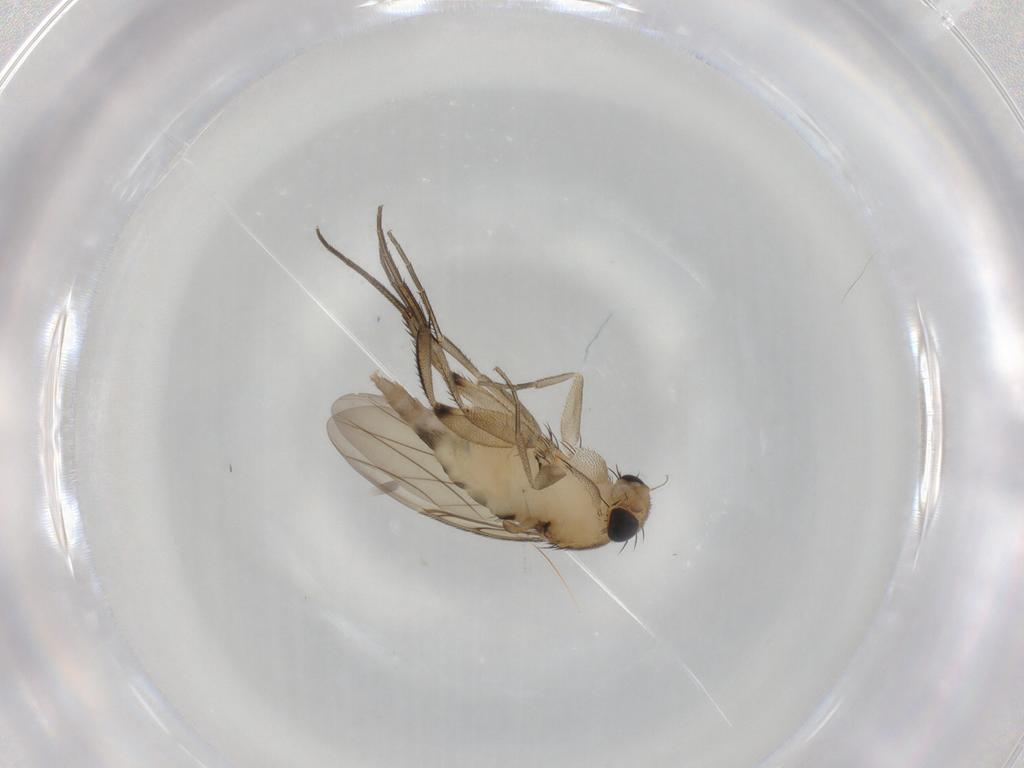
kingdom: Animalia
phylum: Arthropoda
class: Insecta
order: Diptera
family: Phoridae
